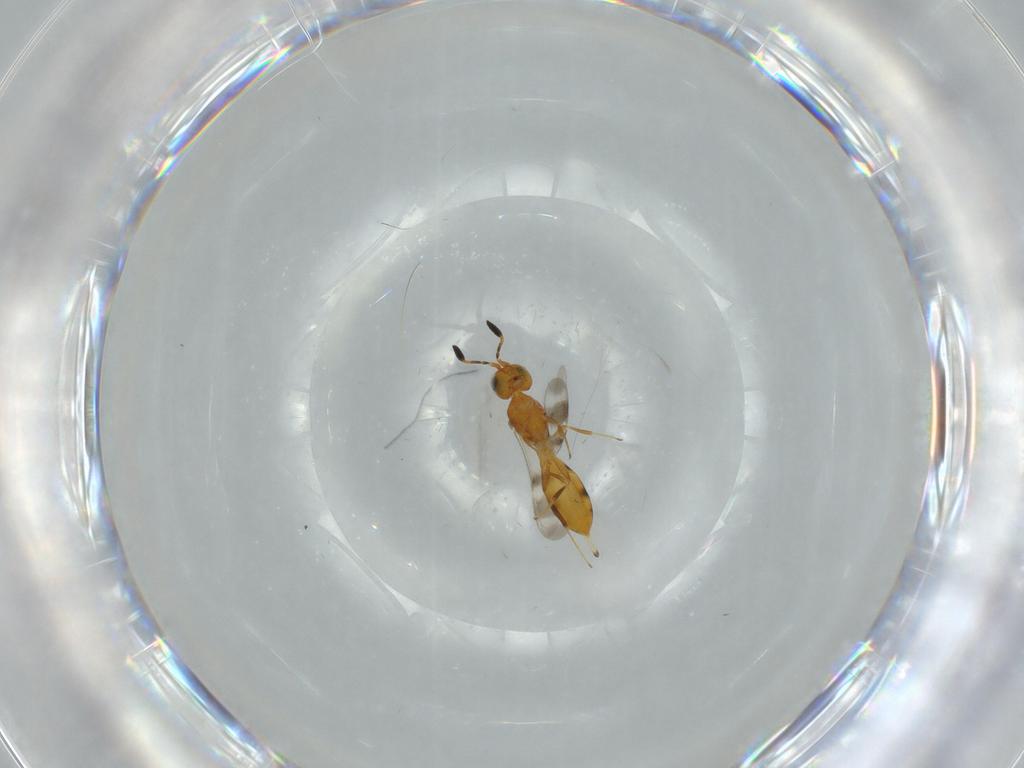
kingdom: Animalia
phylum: Arthropoda
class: Insecta
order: Hymenoptera
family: Scelionidae
